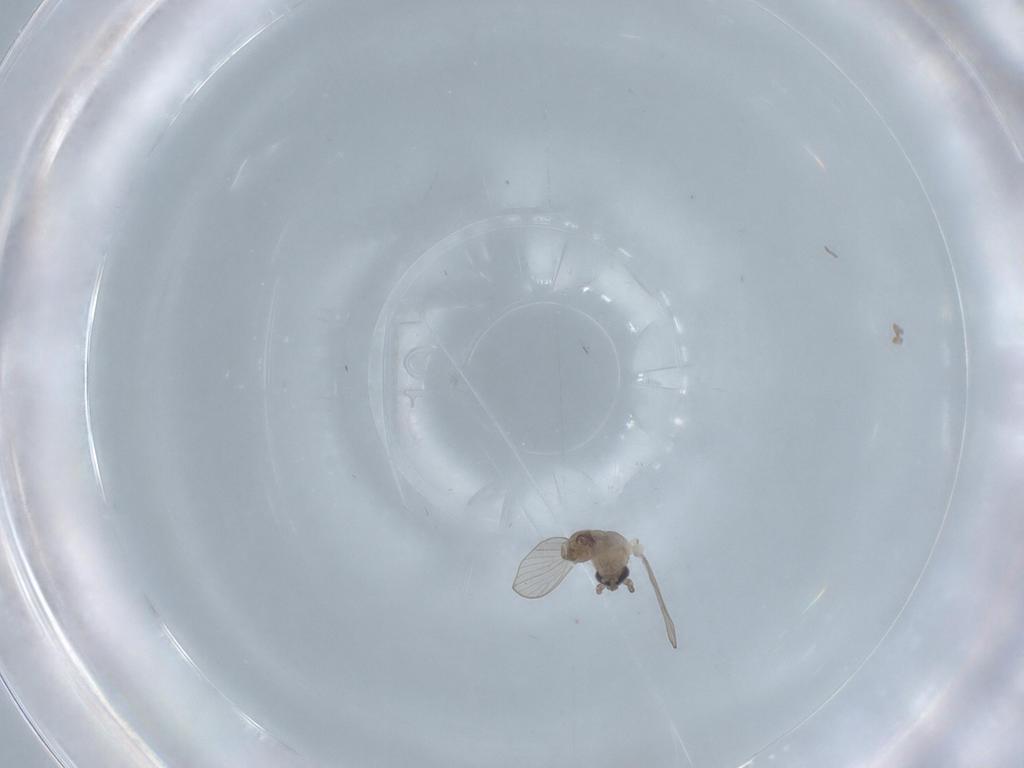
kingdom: Animalia
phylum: Arthropoda
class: Insecta
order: Diptera
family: Psychodidae
